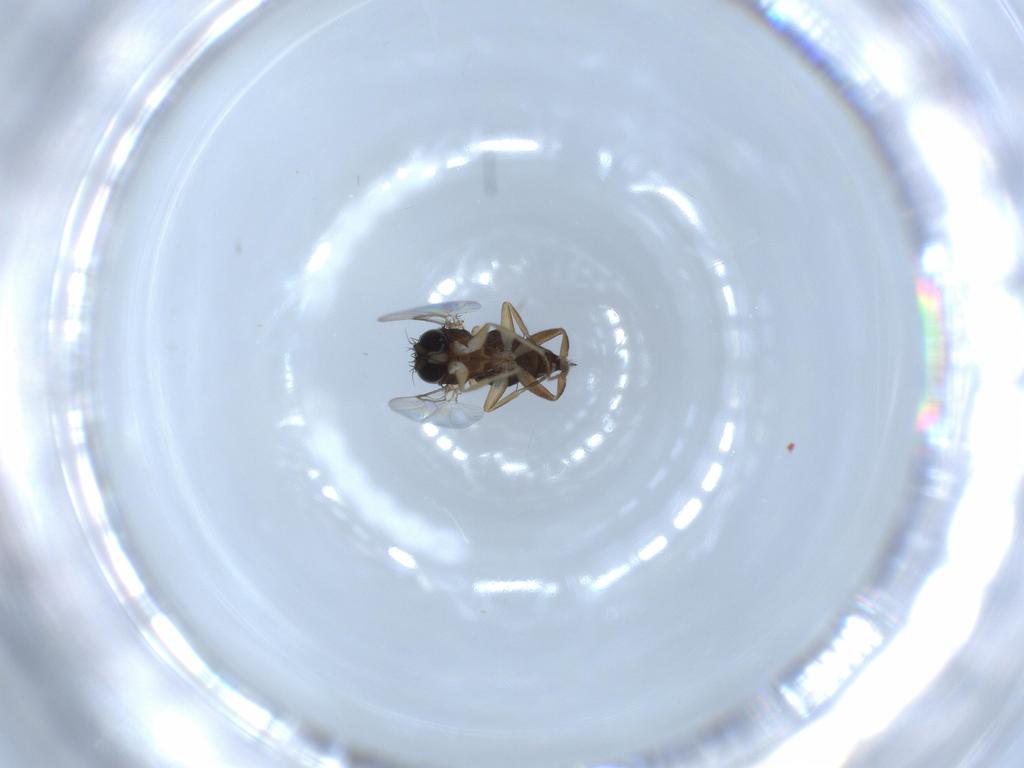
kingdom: Animalia
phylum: Arthropoda
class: Insecta
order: Diptera
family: Phoridae
